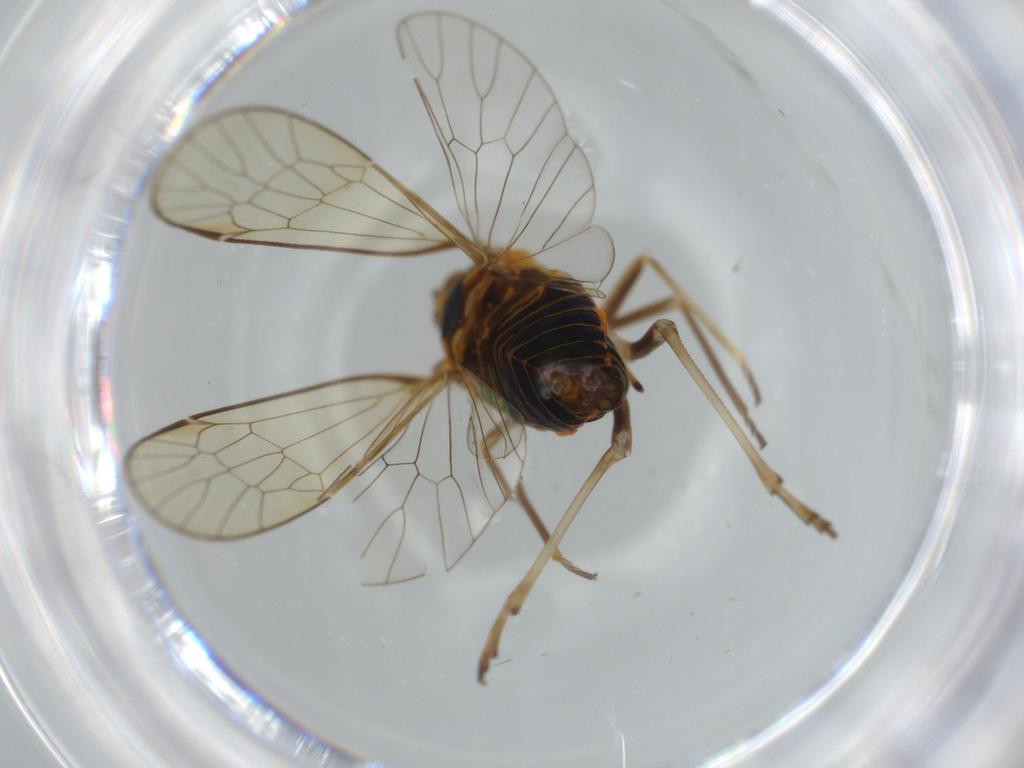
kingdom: Animalia
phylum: Arthropoda
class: Insecta
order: Hemiptera
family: Kinnaridae
